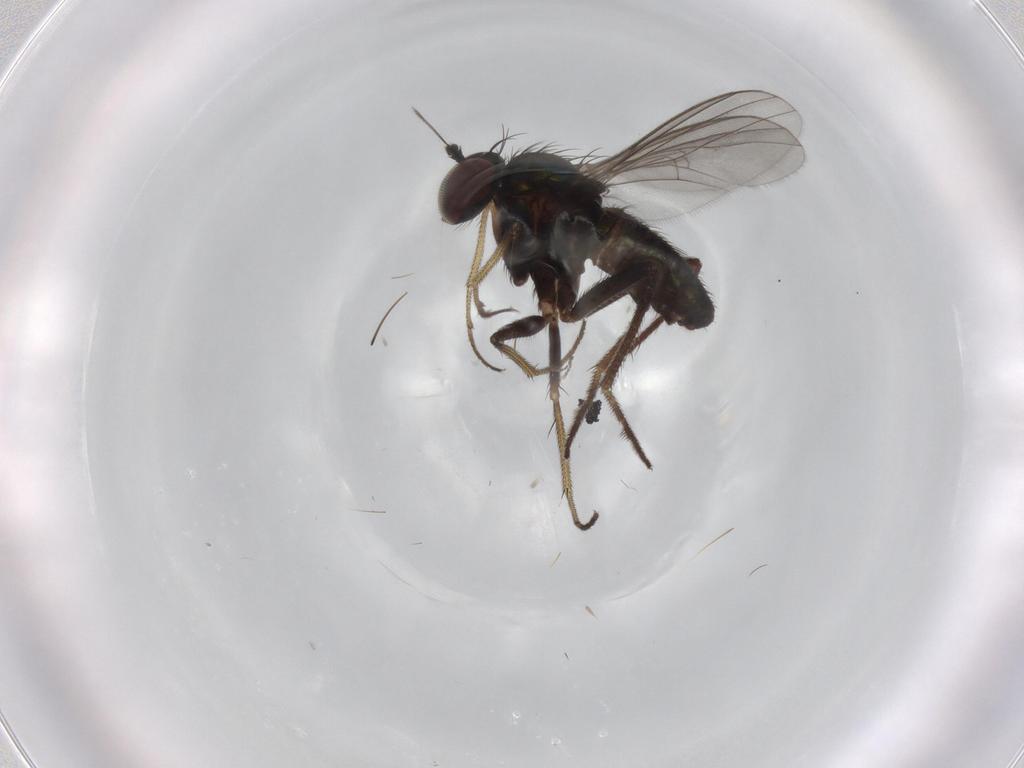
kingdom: Animalia
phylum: Arthropoda
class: Insecta
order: Diptera
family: Dolichopodidae
